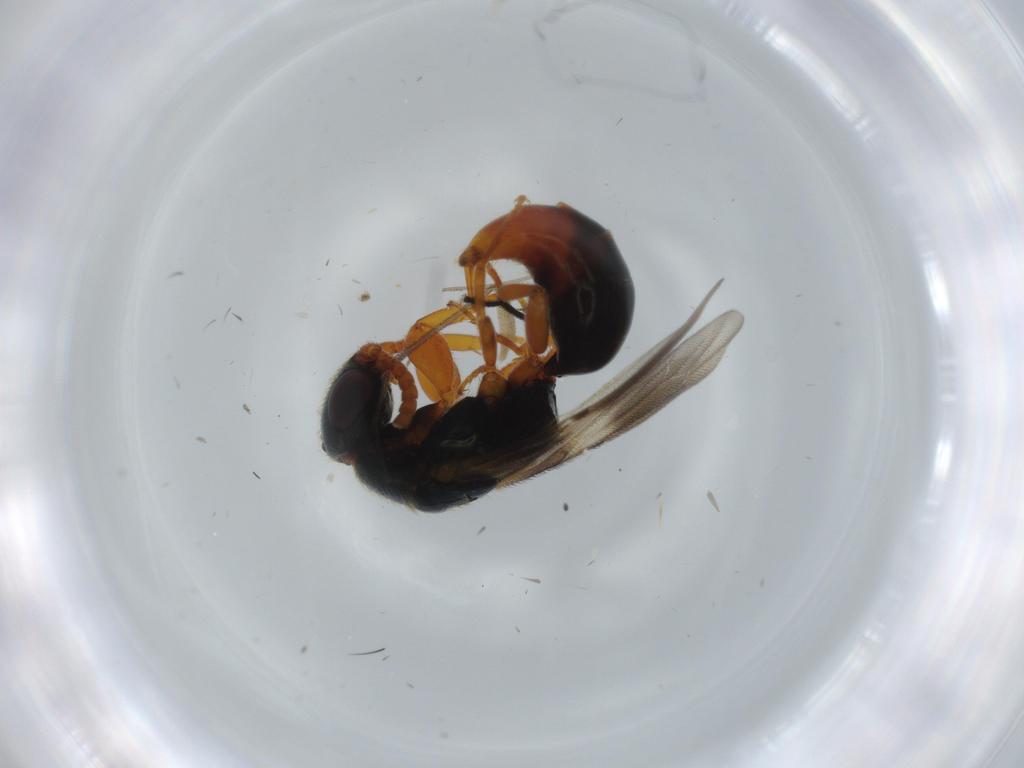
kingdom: Animalia
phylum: Arthropoda
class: Insecta
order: Hymenoptera
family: Bethylidae
